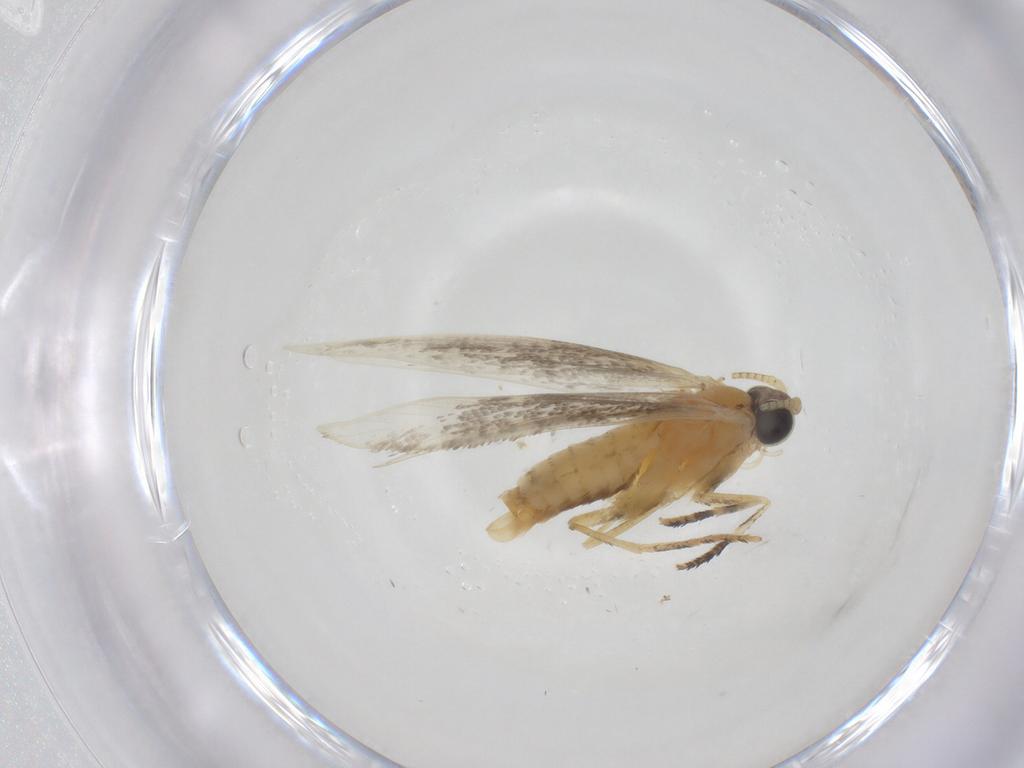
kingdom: Animalia
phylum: Arthropoda
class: Insecta
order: Lepidoptera
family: Tineidae
